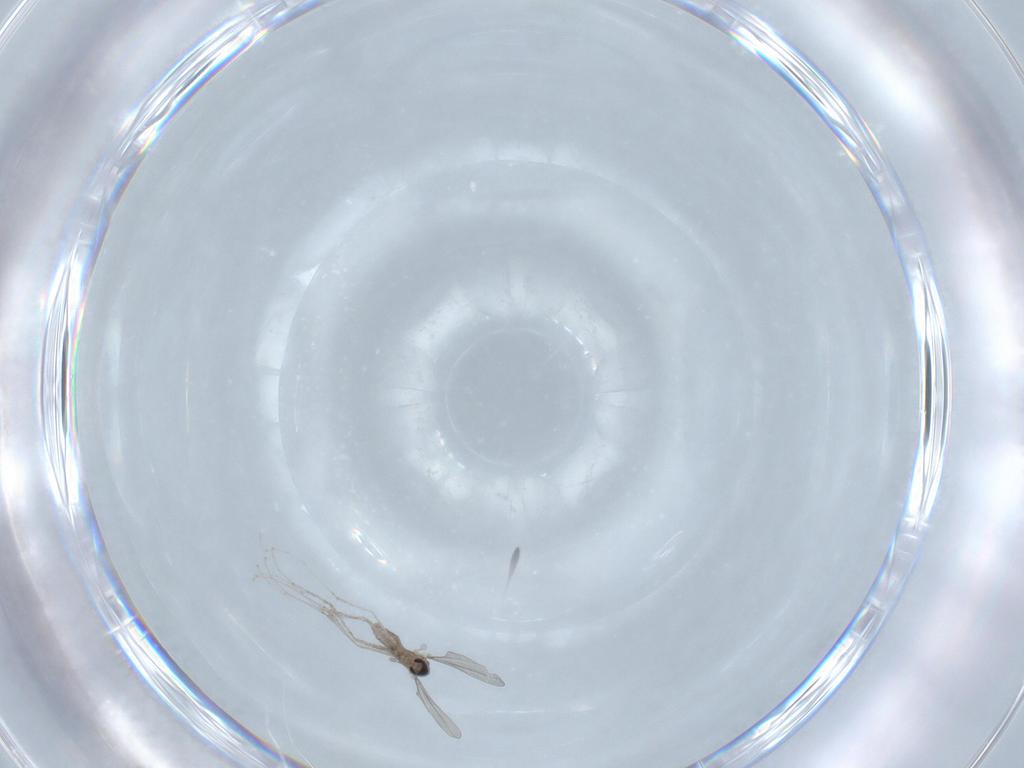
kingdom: Animalia
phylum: Arthropoda
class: Insecta
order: Diptera
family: Cecidomyiidae
